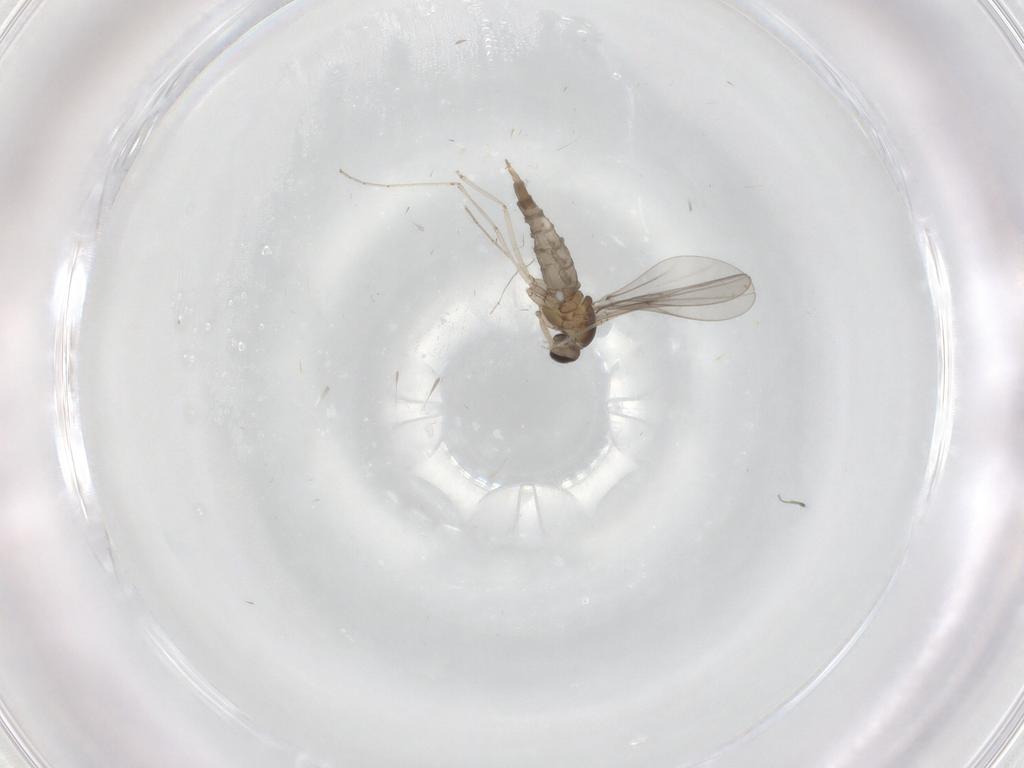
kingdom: Animalia
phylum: Arthropoda
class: Insecta
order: Diptera
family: Cecidomyiidae
